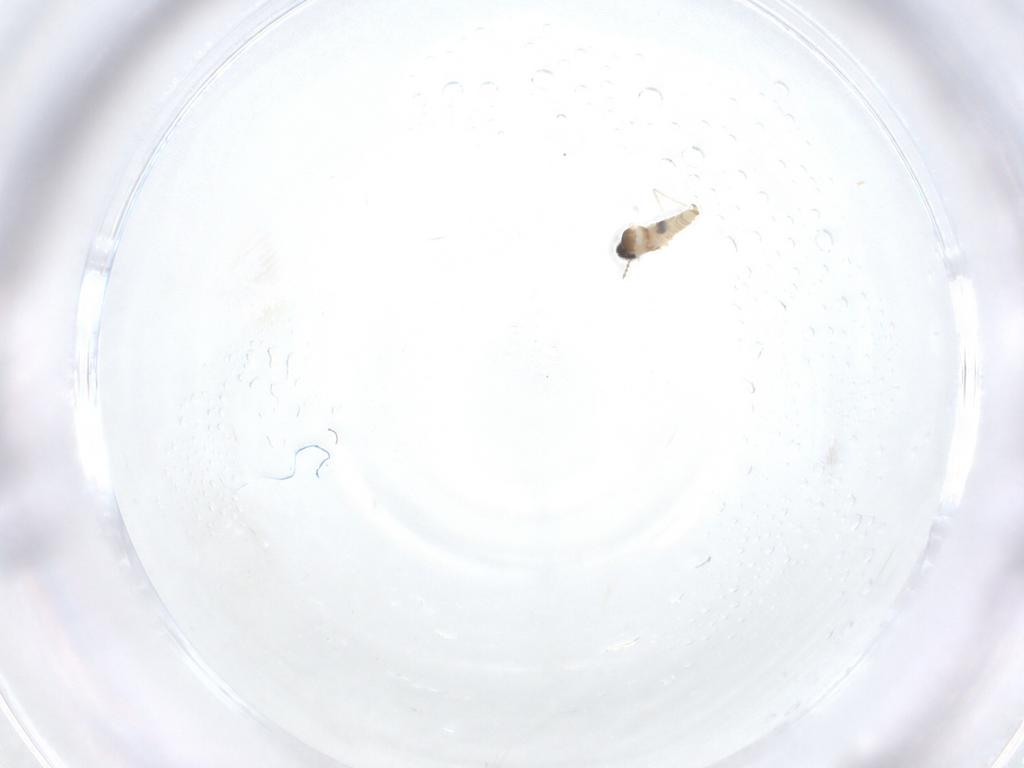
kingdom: Animalia
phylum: Arthropoda
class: Insecta
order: Diptera
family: Cecidomyiidae
